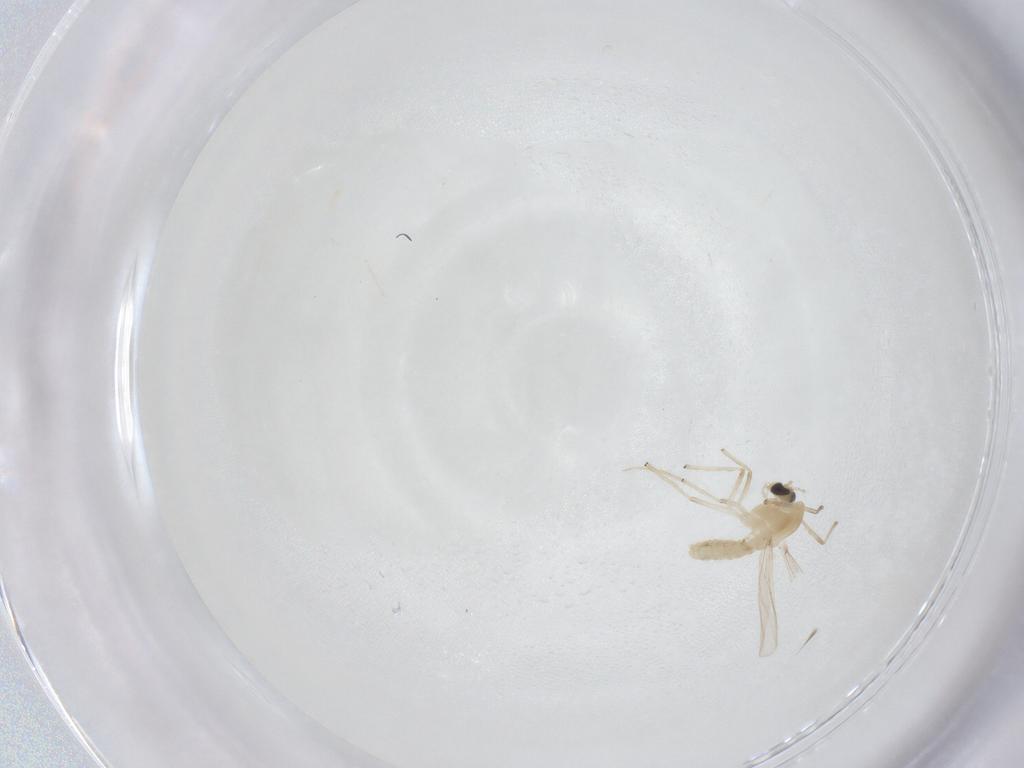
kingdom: Animalia
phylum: Arthropoda
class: Insecta
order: Diptera
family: Chironomidae
